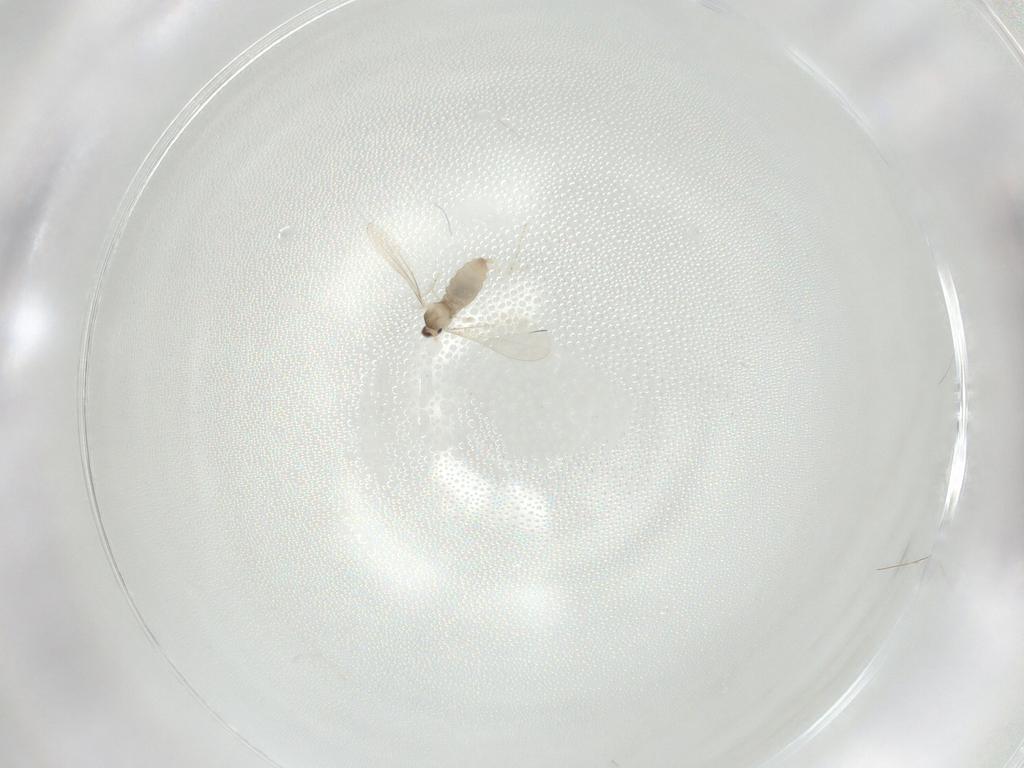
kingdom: Animalia
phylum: Arthropoda
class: Insecta
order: Diptera
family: Cecidomyiidae
